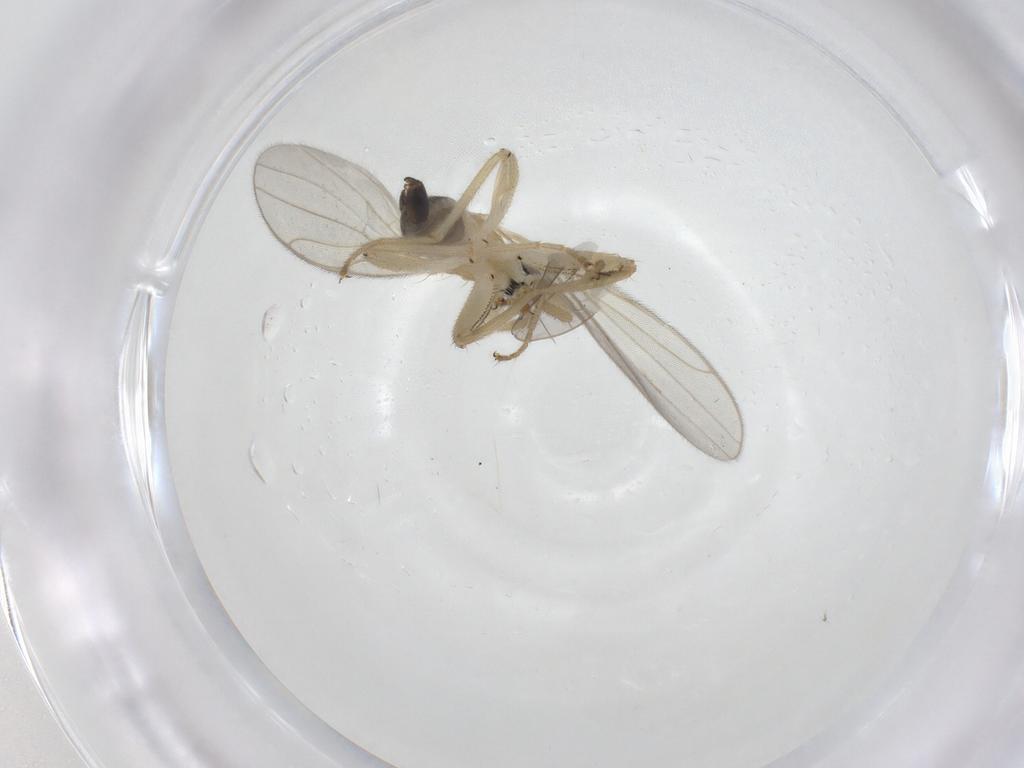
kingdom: Animalia
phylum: Arthropoda
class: Insecta
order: Diptera
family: Hybotidae
